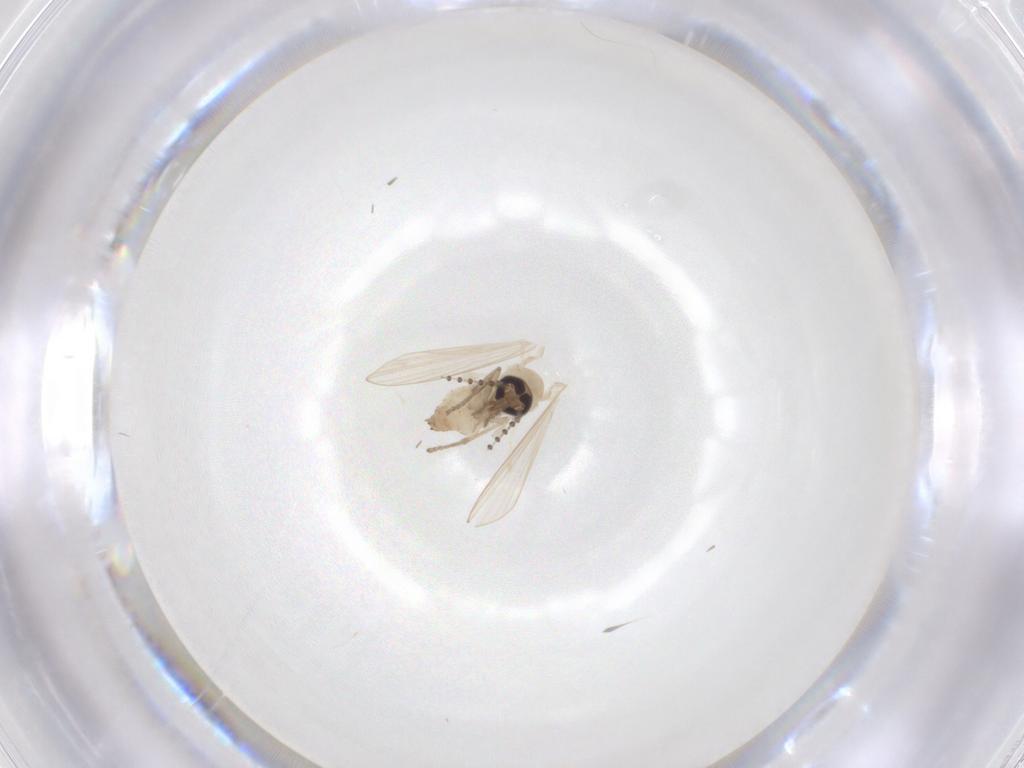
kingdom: Animalia
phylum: Arthropoda
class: Insecta
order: Diptera
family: Psychodidae
